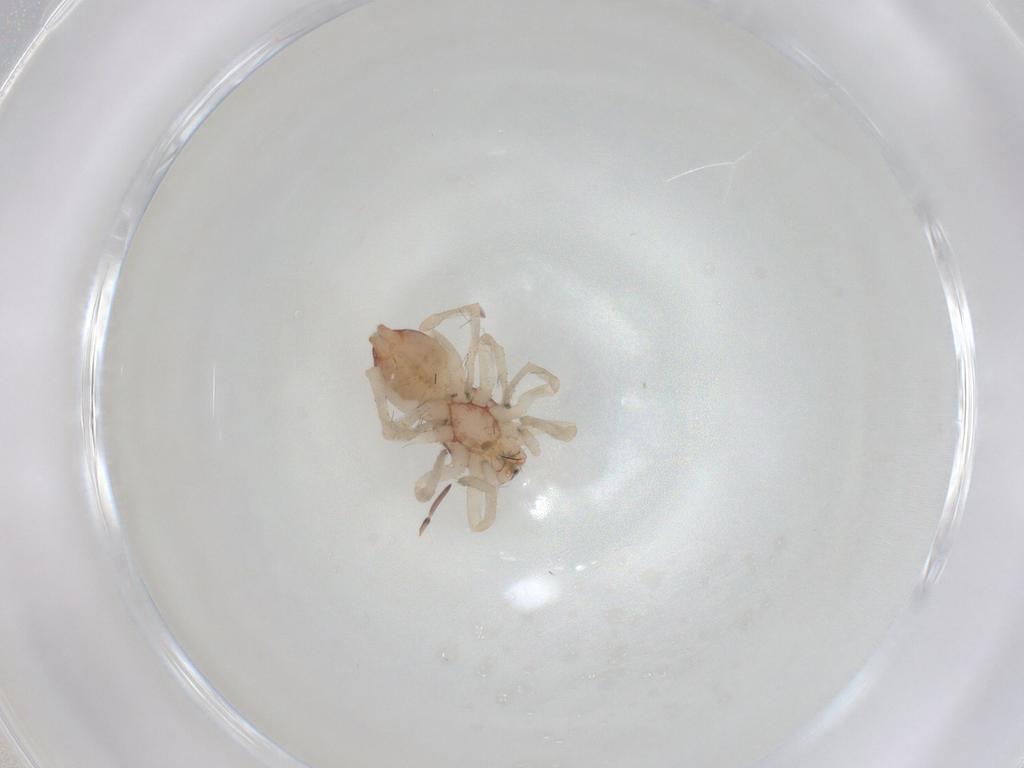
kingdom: Animalia
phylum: Arthropoda
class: Arachnida
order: Araneae
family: Clubionidae
